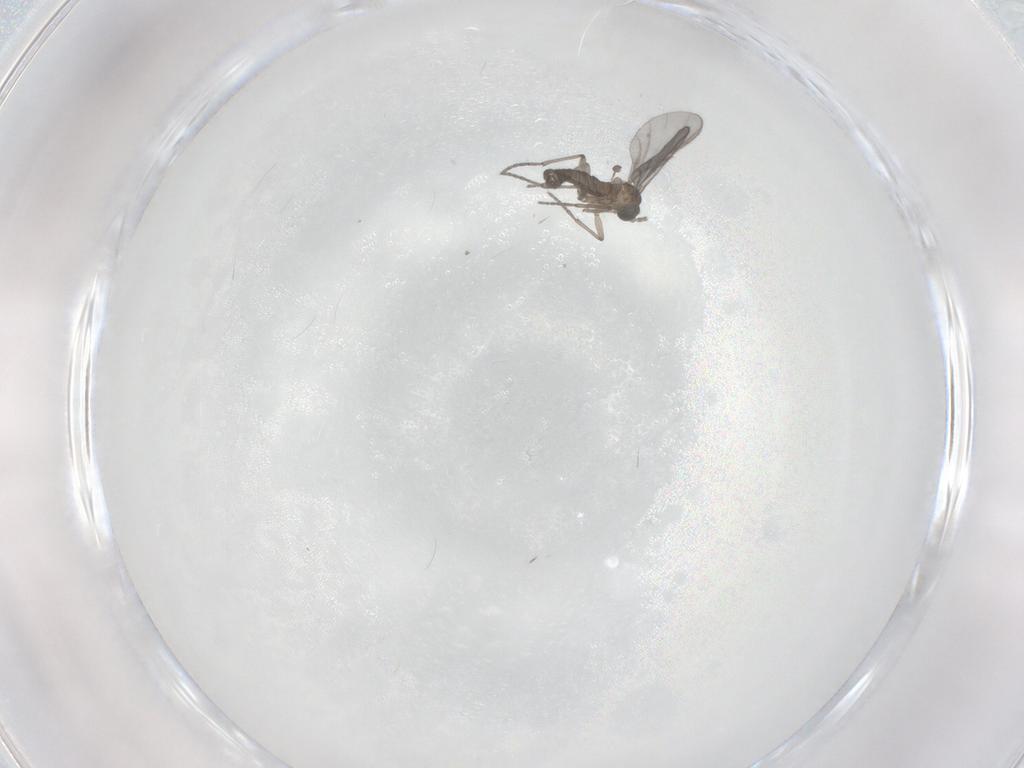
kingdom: Animalia
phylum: Arthropoda
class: Insecta
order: Diptera
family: Sciaridae
